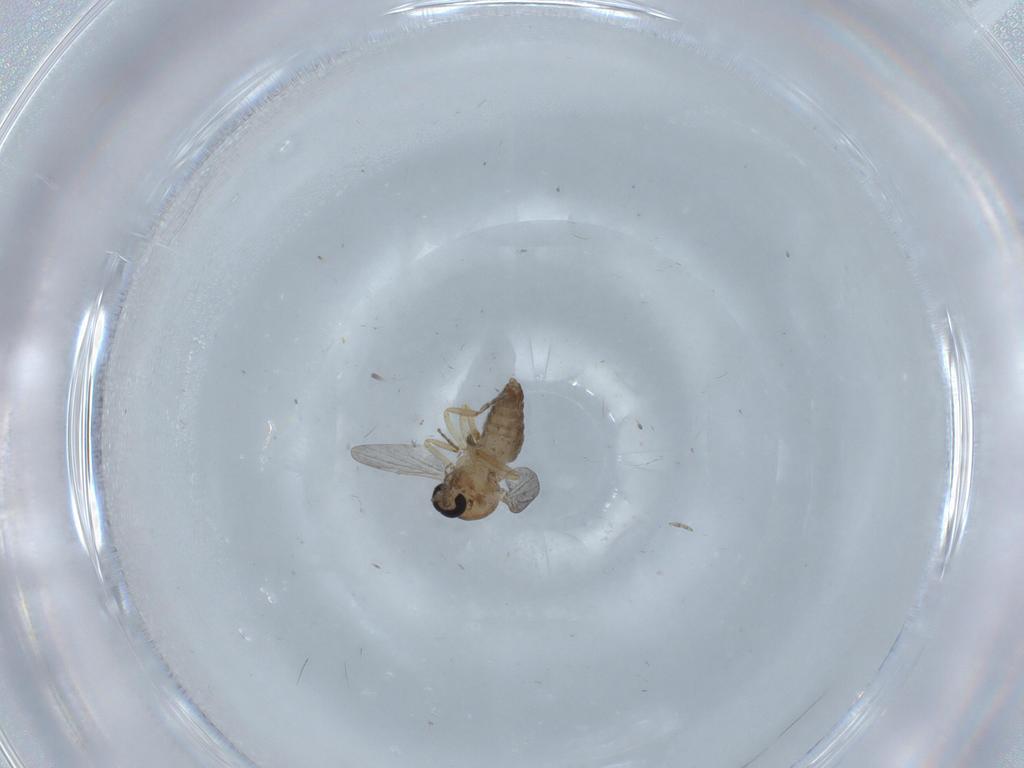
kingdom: Animalia
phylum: Arthropoda
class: Insecta
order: Diptera
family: Ceratopogonidae
